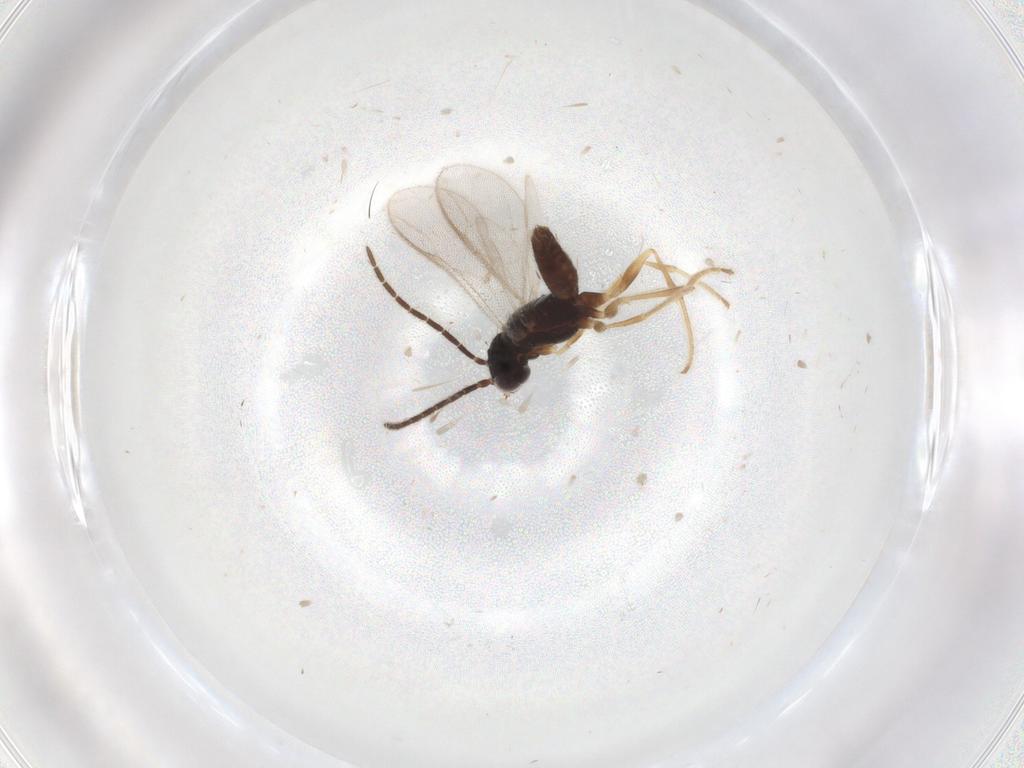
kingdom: Animalia
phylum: Arthropoda
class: Insecta
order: Hymenoptera
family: Dryinidae
